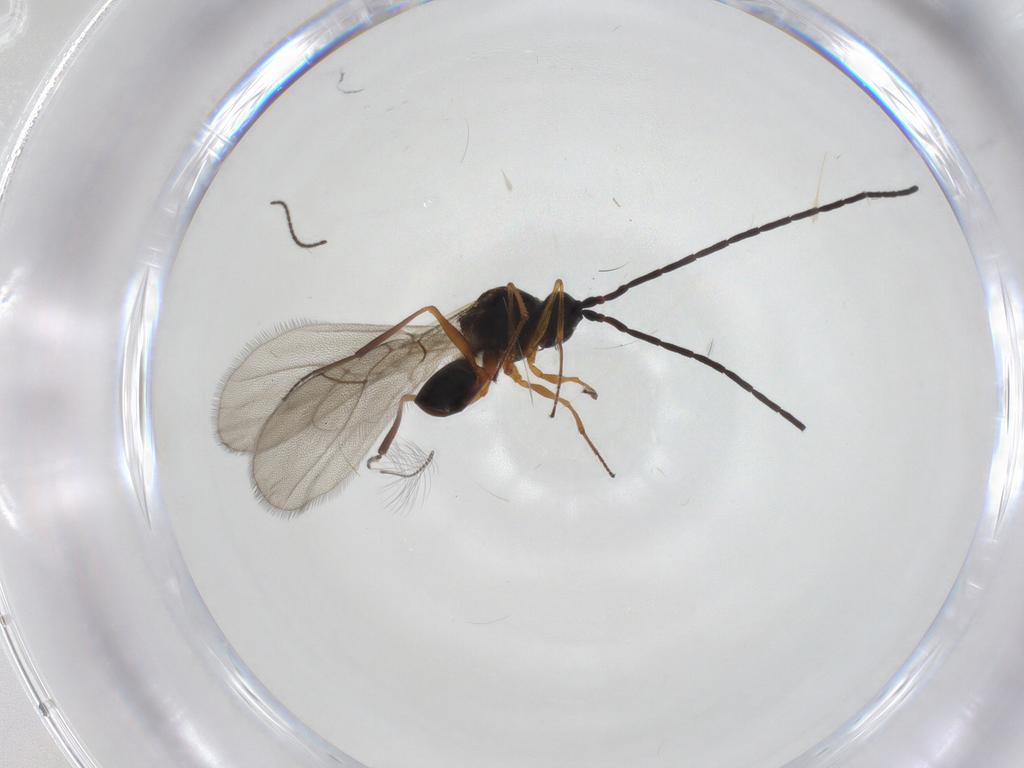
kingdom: Animalia
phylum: Arthropoda
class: Insecta
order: Hymenoptera
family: Figitidae
